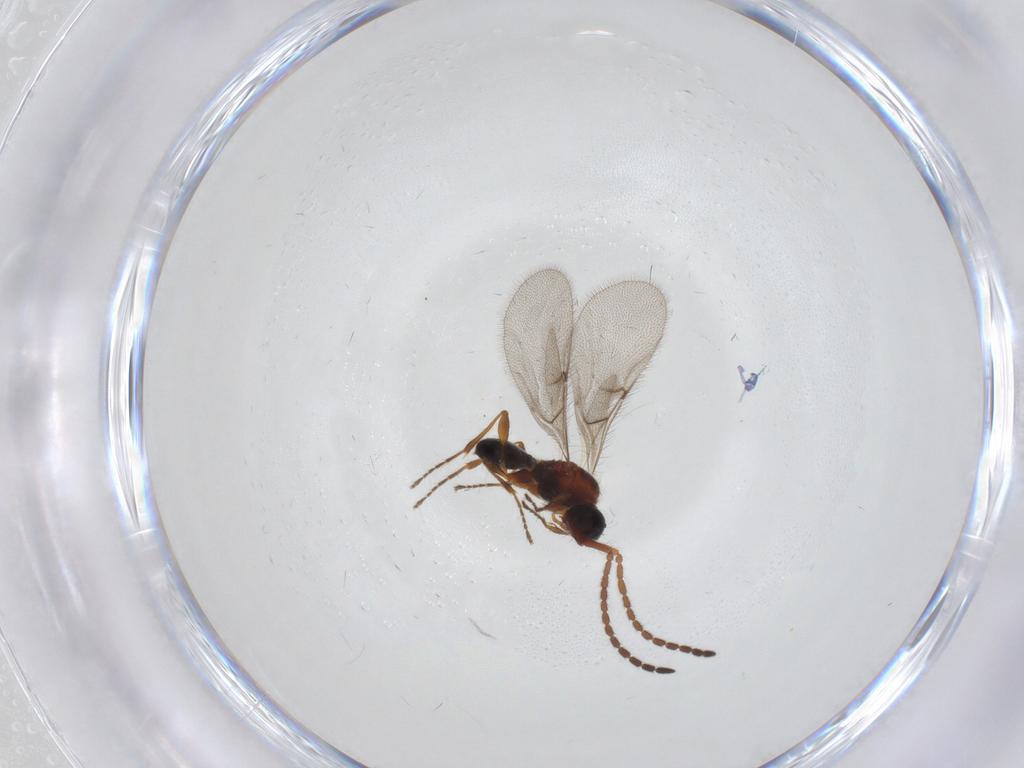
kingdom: Animalia
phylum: Arthropoda
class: Insecta
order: Hymenoptera
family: Diapriidae
